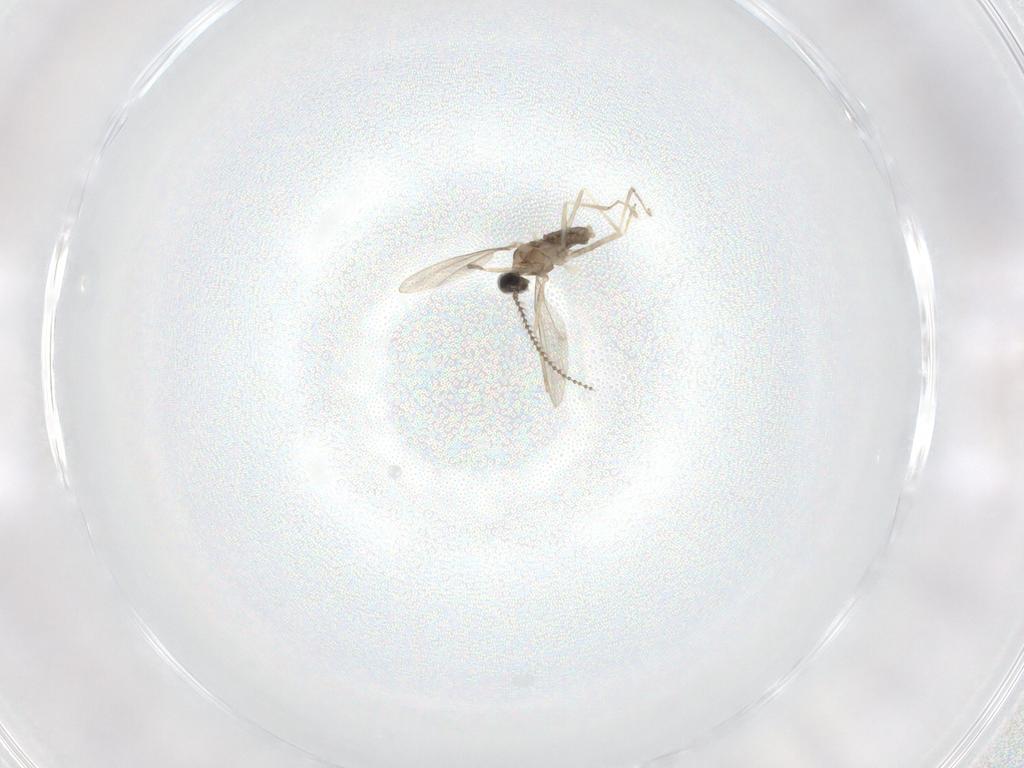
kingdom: Animalia
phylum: Arthropoda
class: Insecta
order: Diptera
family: Cecidomyiidae
